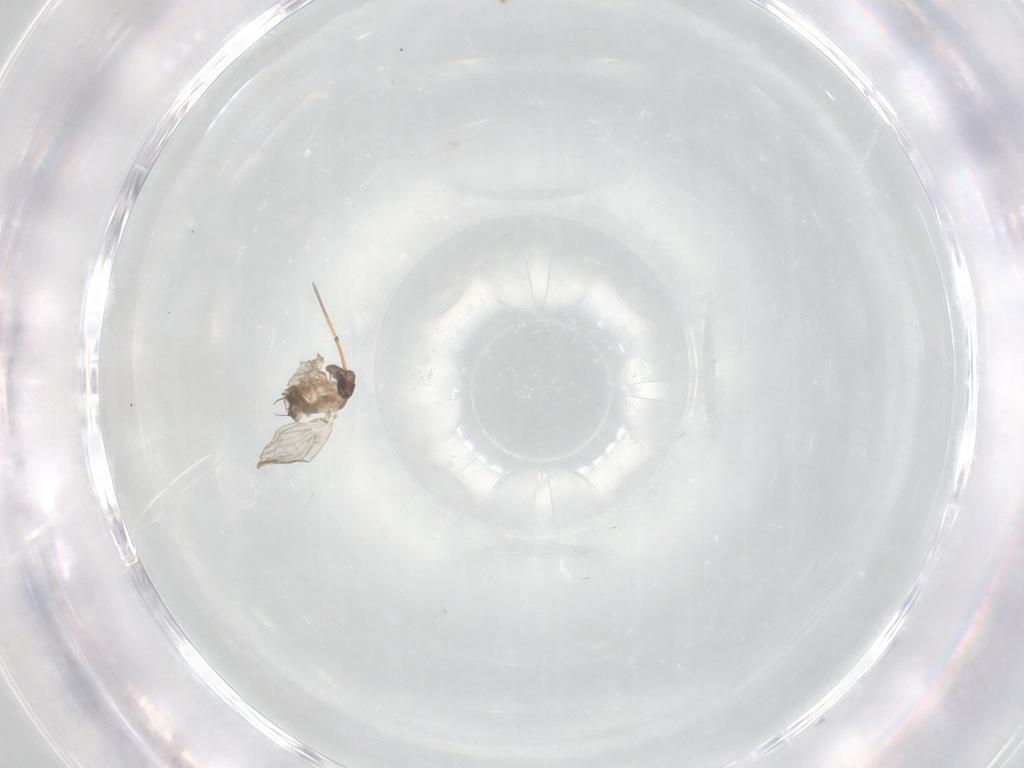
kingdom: Animalia
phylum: Arthropoda
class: Insecta
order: Diptera
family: Phoridae
